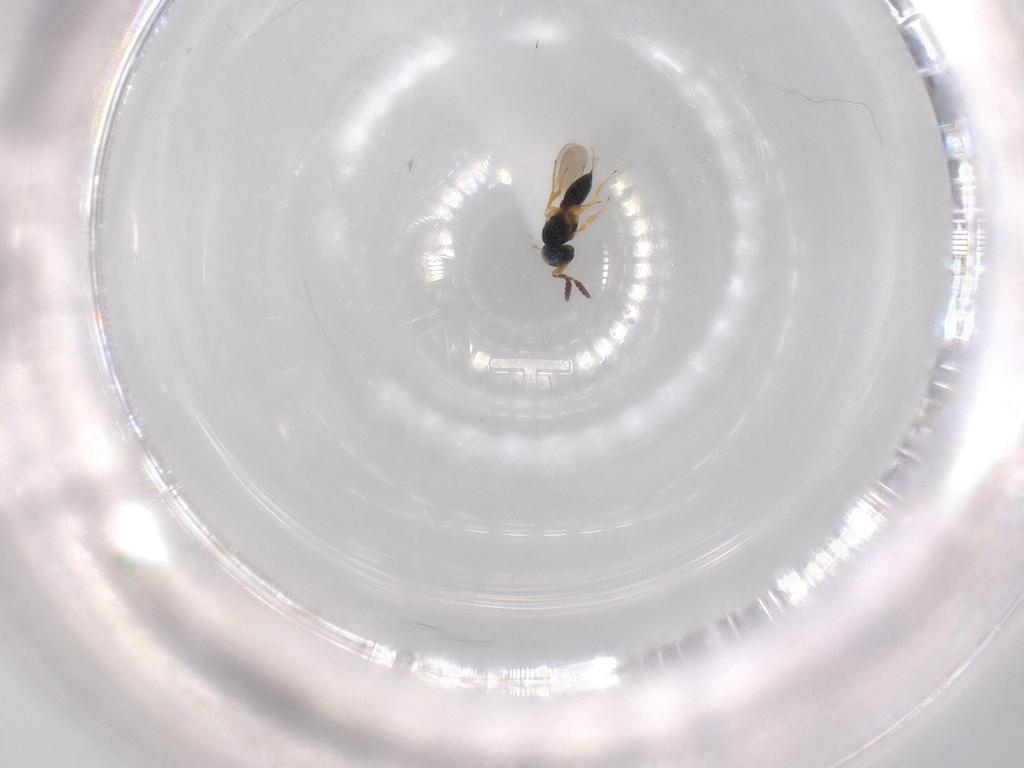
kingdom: Animalia
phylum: Arthropoda
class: Insecta
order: Hymenoptera
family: Scelionidae
